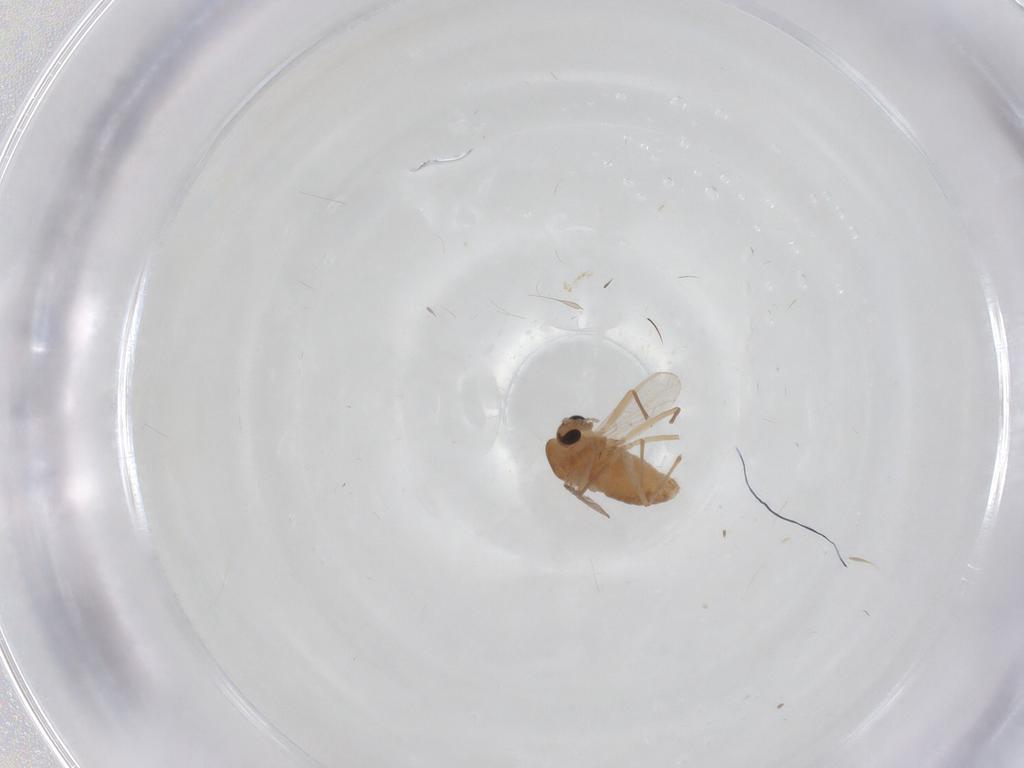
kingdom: Animalia
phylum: Arthropoda
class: Insecta
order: Diptera
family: Chironomidae
